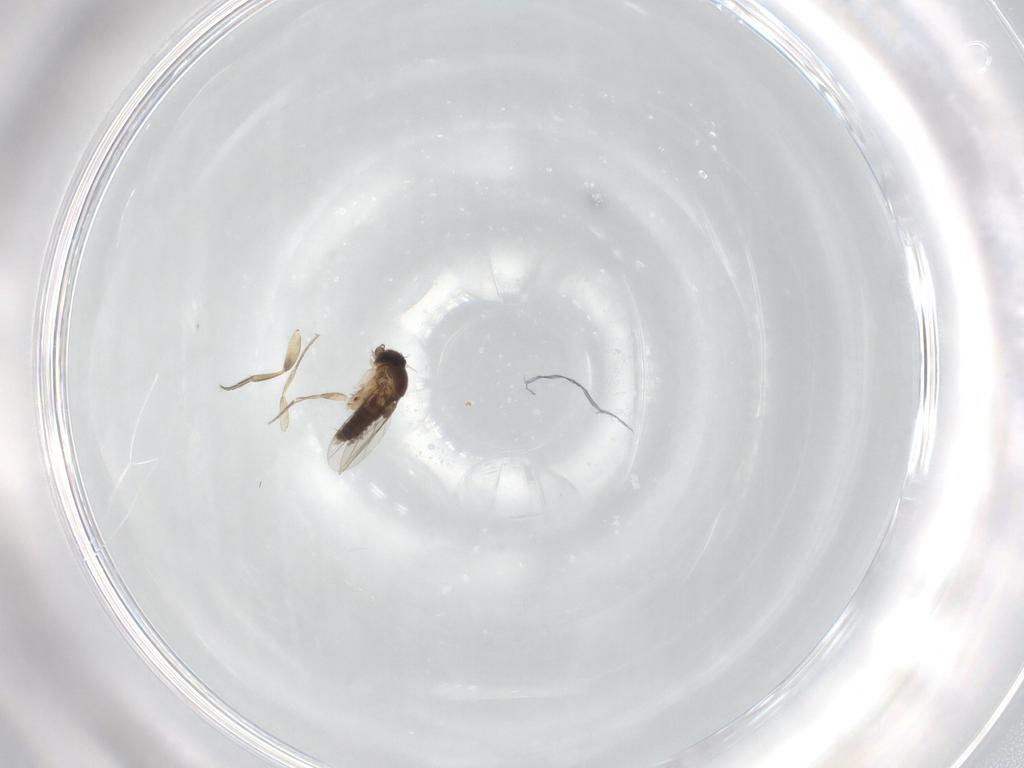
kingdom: Animalia
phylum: Arthropoda
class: Insecta
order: Diptera
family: Cecidomyiidae
